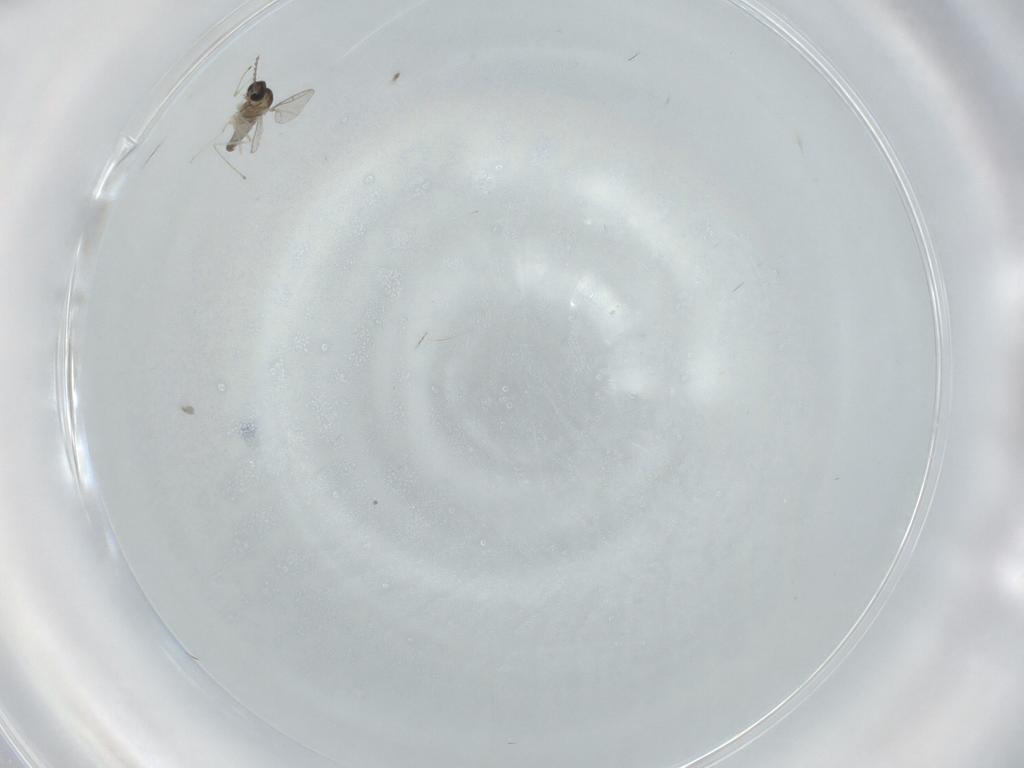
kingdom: Animalia
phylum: Arthropoda
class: Insecta
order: Diptera
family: Cecidomyiidae
